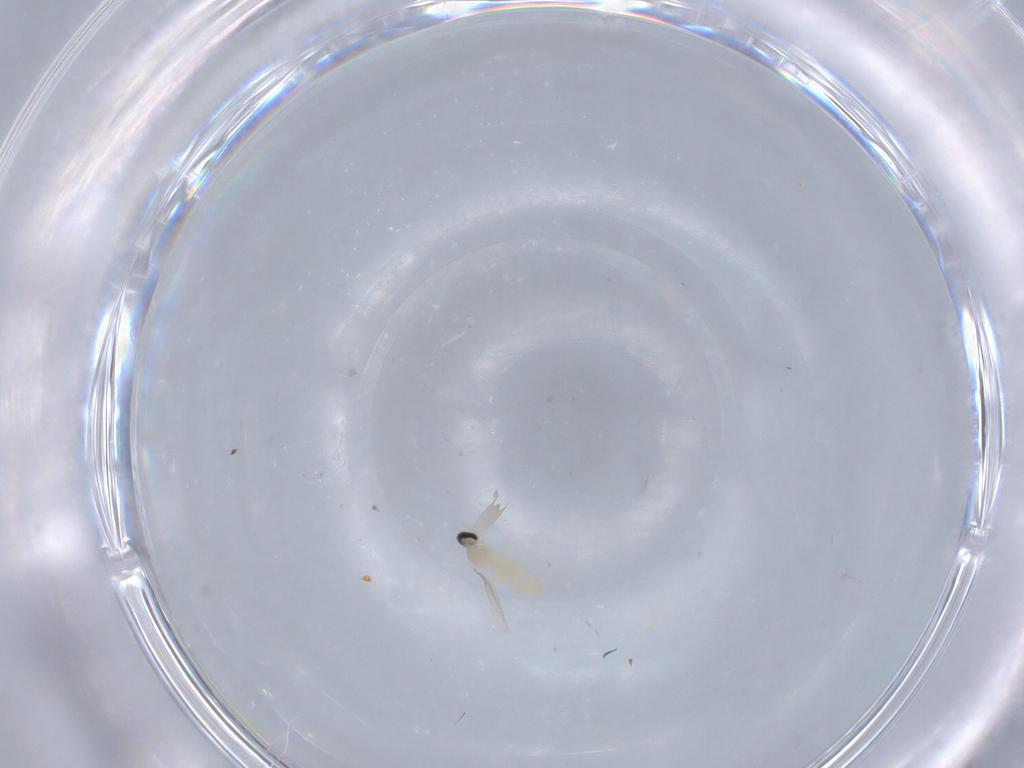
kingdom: Animalia
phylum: Arthropoda
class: Insecta
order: Diptera
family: Cecidomyiidae
